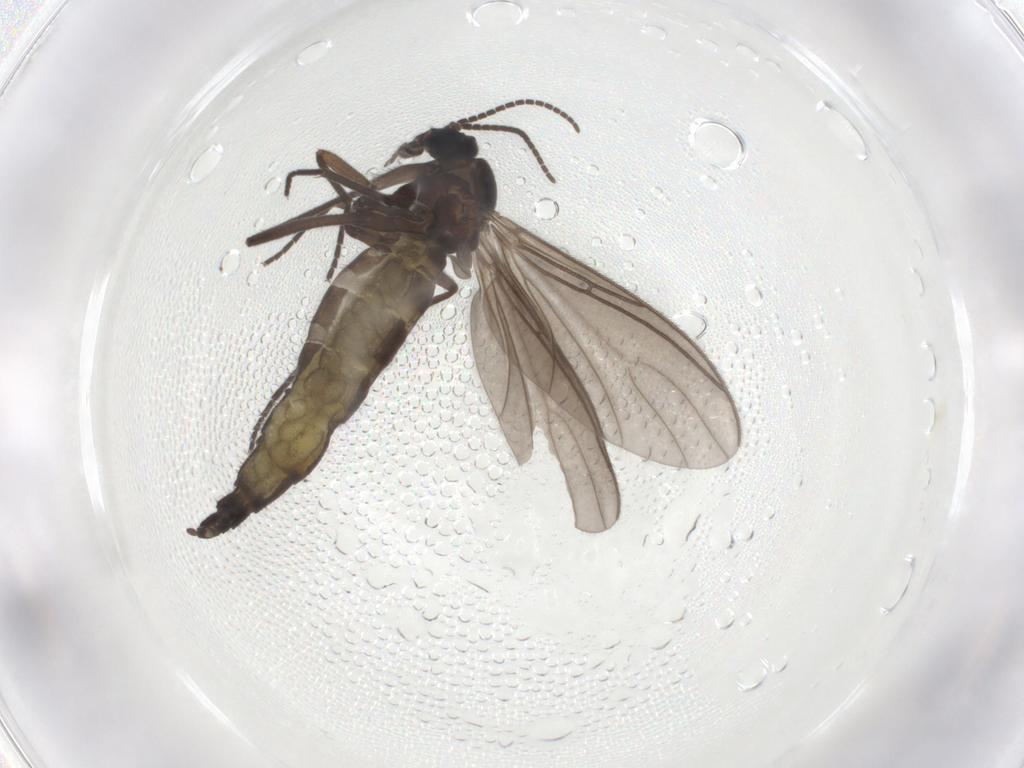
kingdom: Animalia
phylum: Arthropoda
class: Insecta
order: Diptera
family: Sciaridae
